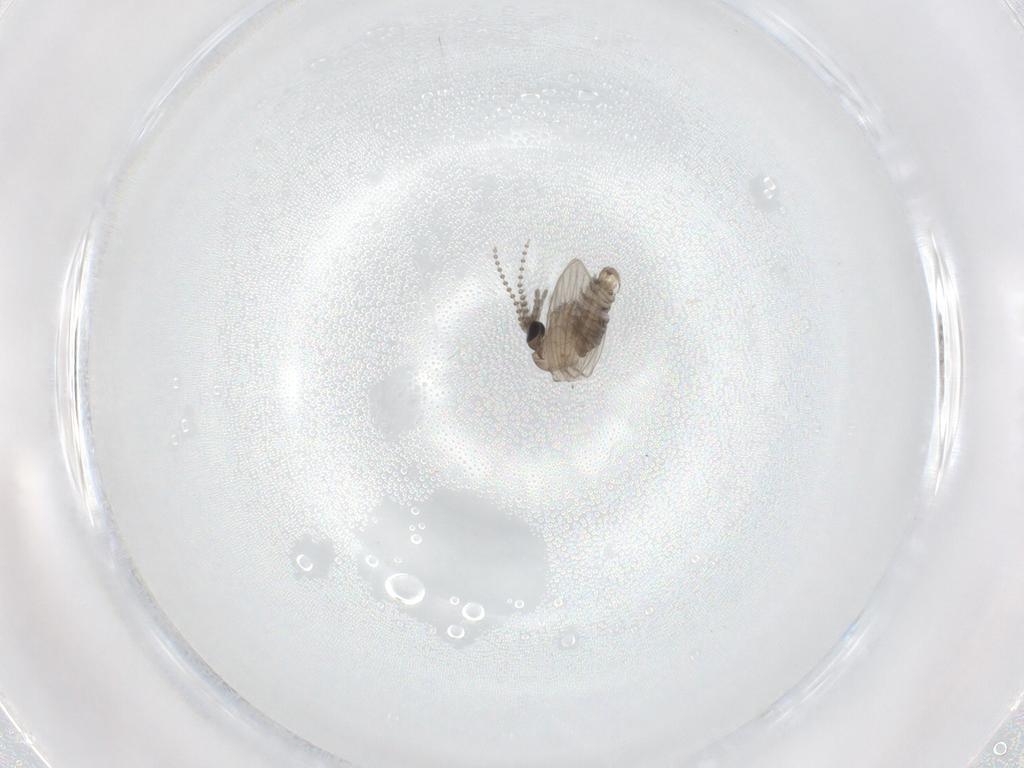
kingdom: Animalia
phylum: Arthropoda
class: Insecta
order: Diptera
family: Psychodidae
